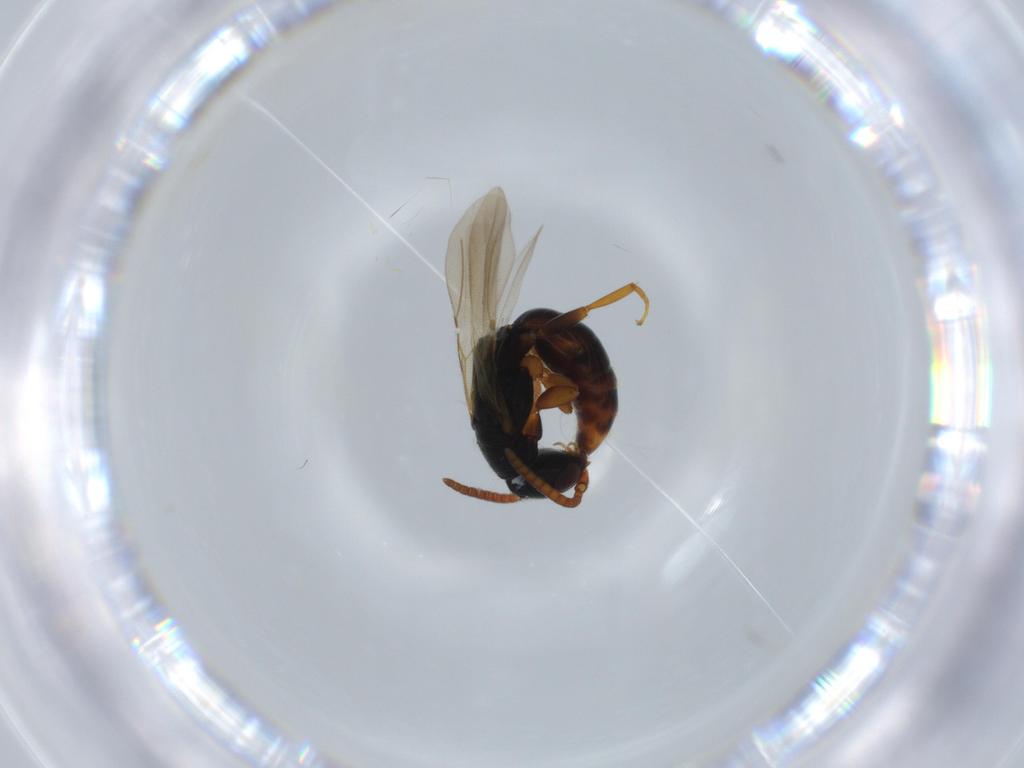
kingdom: Animalia
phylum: Arthropoda
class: Insecta
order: Hymenoptera
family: Bethylidae
